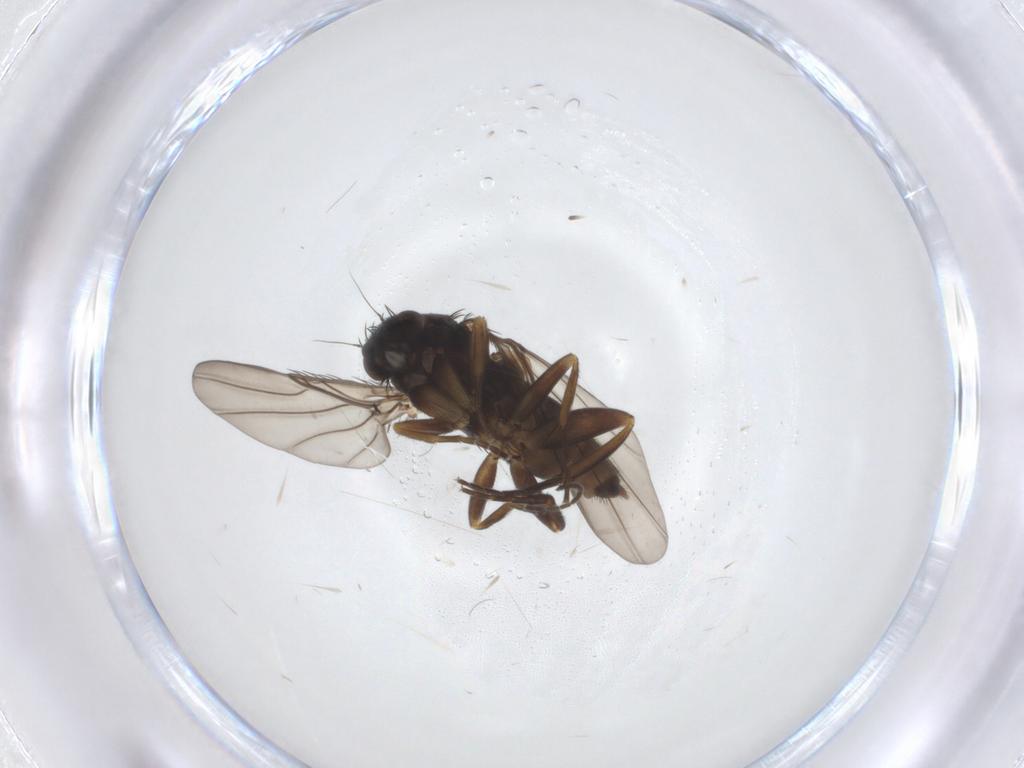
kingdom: Animalia
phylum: Arthropoda
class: Insecta
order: Diptera
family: Phoridae
